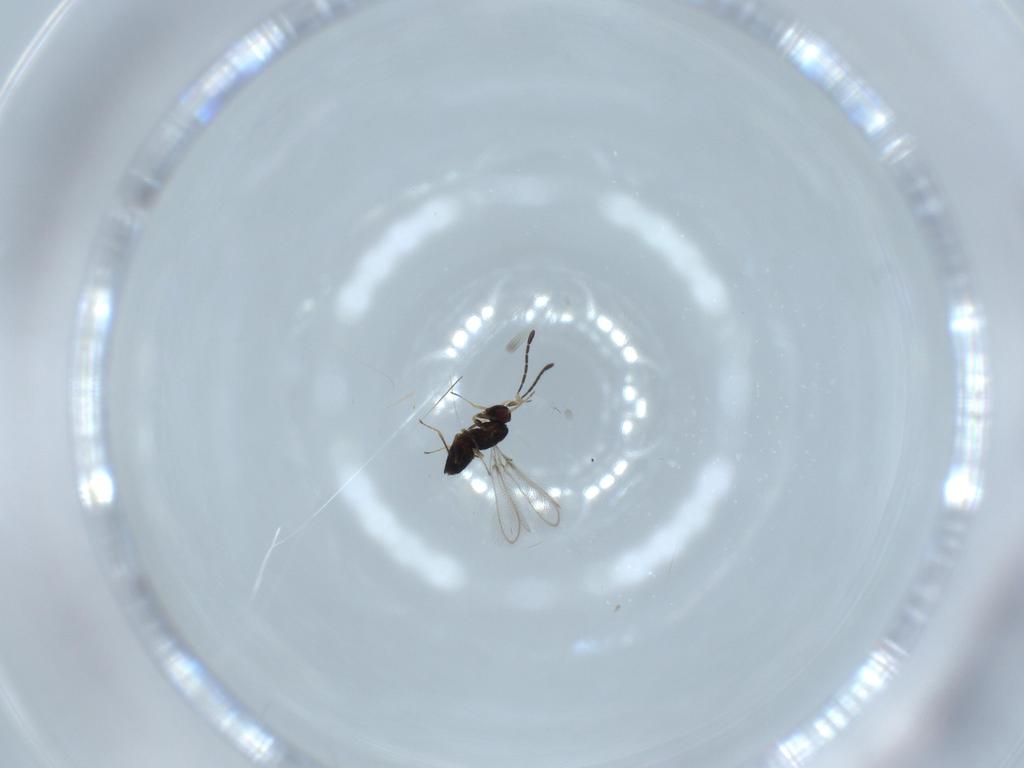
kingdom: Animalia
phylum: Arthropoda
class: Insecta
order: Hymenoptera
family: Mymaridae
